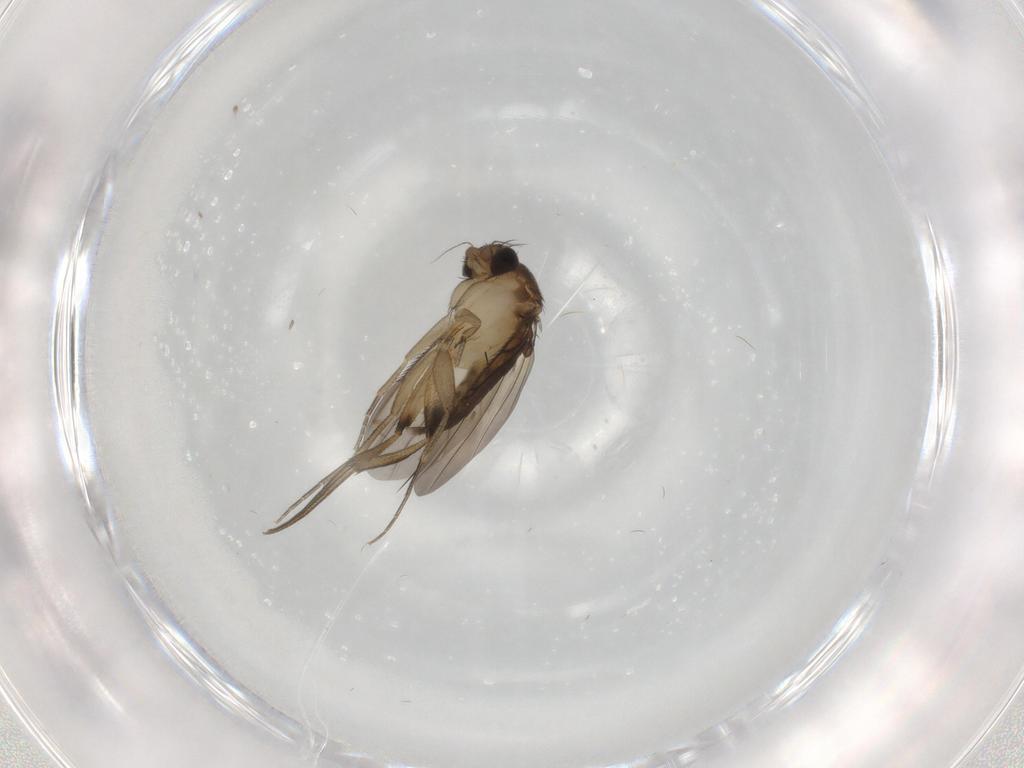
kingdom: Animalia
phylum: Arthropoda
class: Insecta
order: Diptera
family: Phoridae
